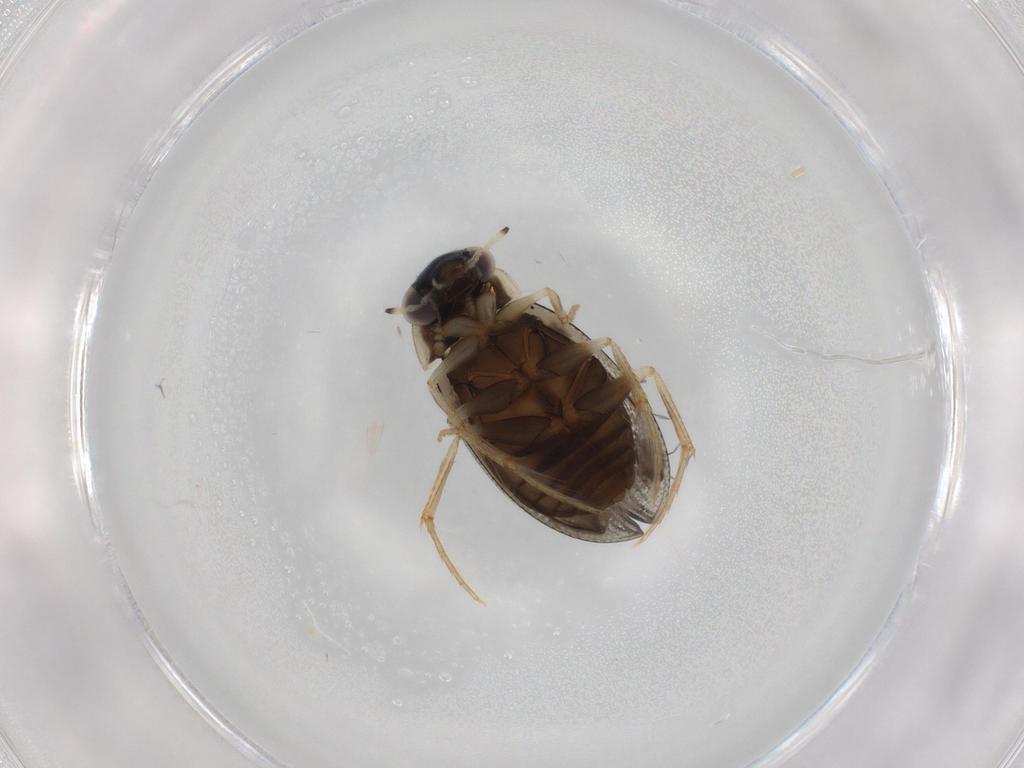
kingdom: Animalia
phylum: Arthropoda
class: Insecta
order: Coleoptera
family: Hydrophilidae
